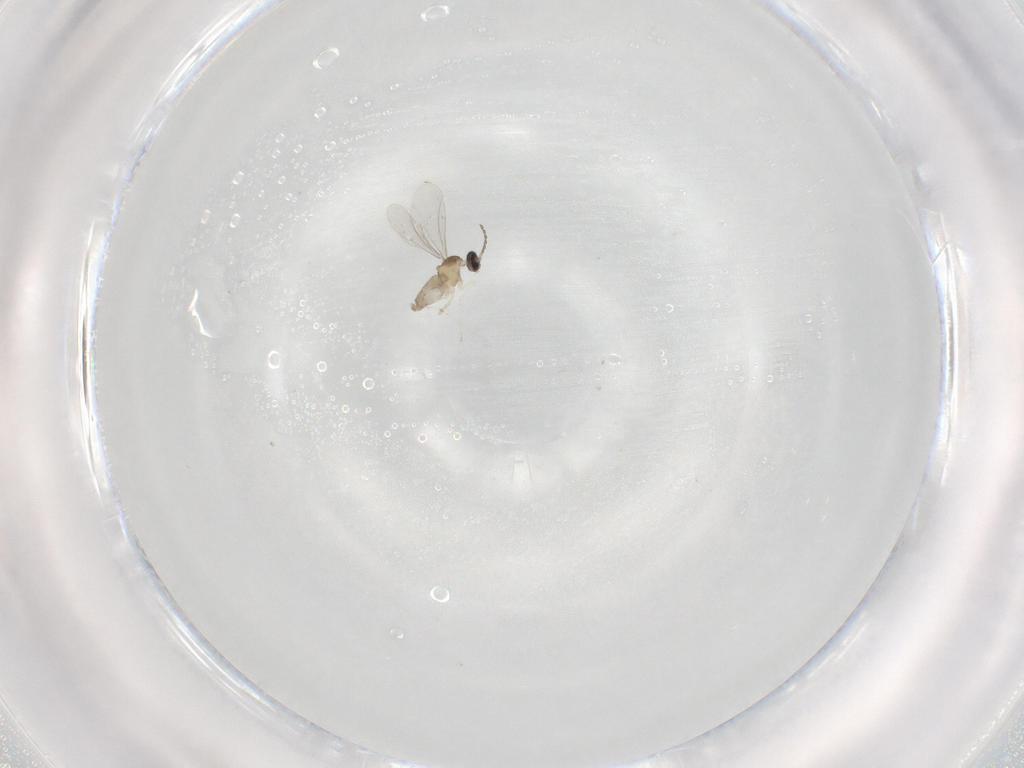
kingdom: Animalia
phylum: Arthropoda
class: Insecta
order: Diptera
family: Cecidomyiidae
